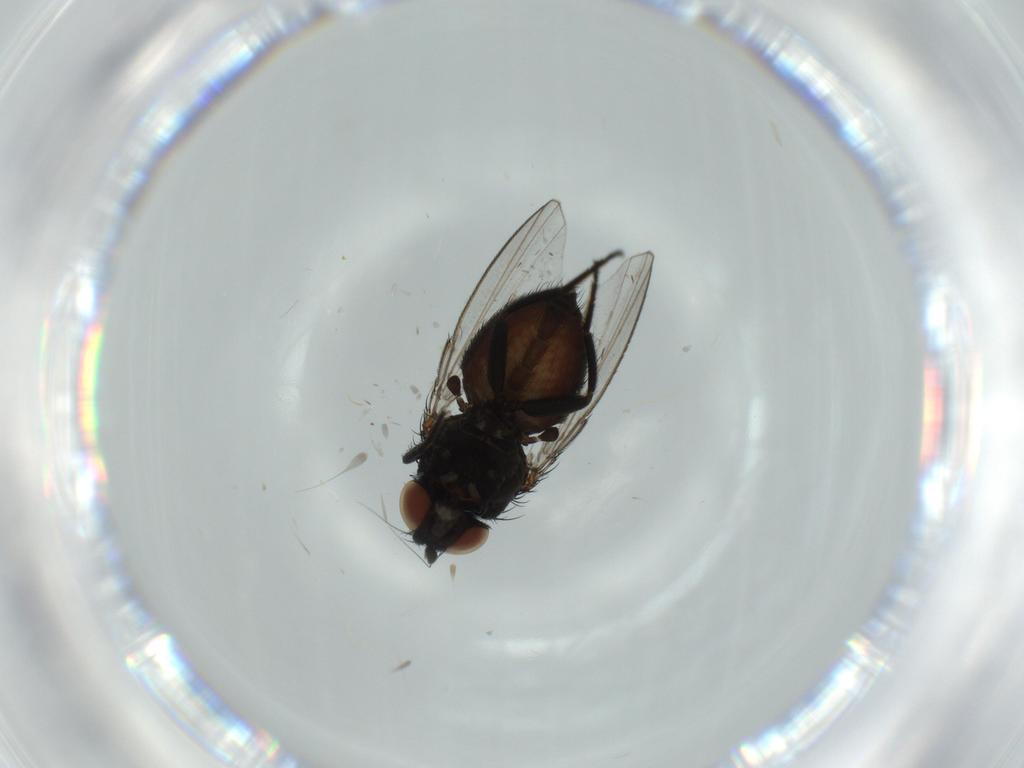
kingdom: Animalia
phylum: Arthropoda
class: Insecta
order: Diptera
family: Milichiidae
